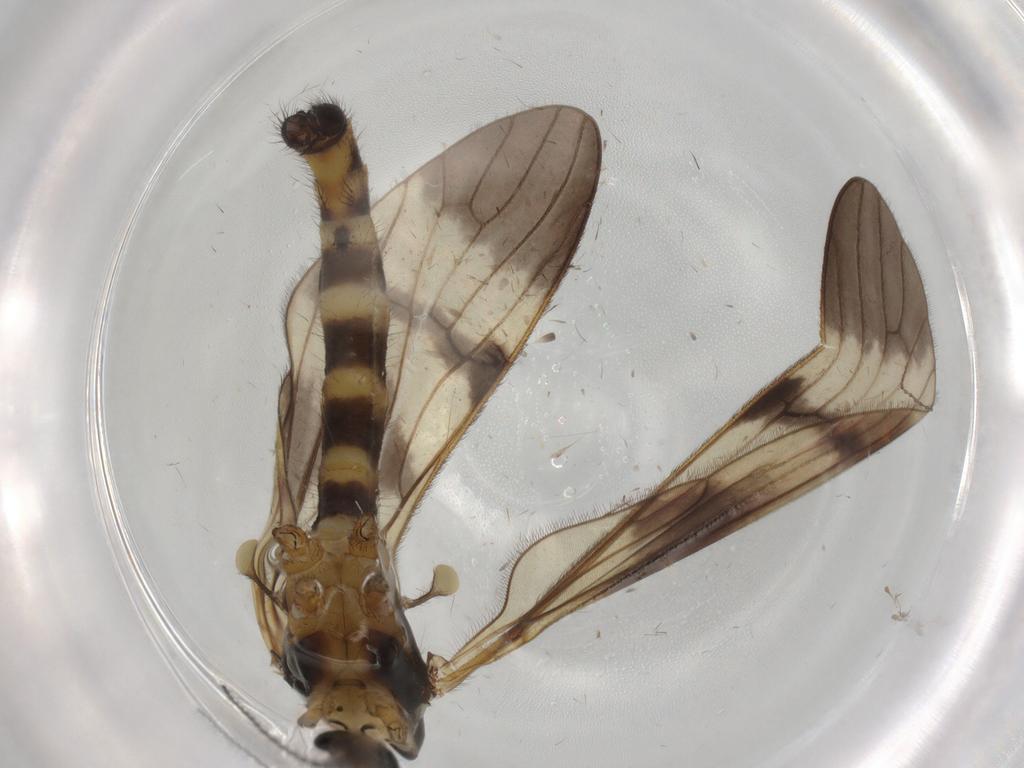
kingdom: Animalia
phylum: Arthropoda
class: Insecta
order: Diptera
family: Limoniidae
